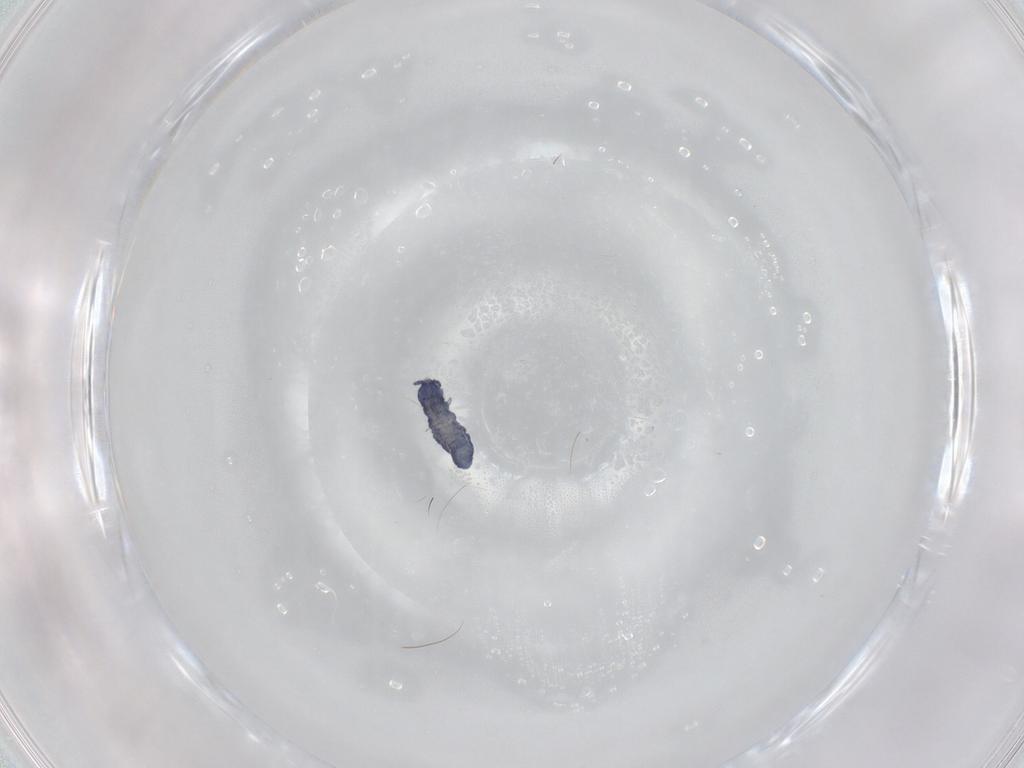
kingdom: Animalia
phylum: Arthropoda
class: Collembola
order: Poduromorpha
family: Hypogastruridae
